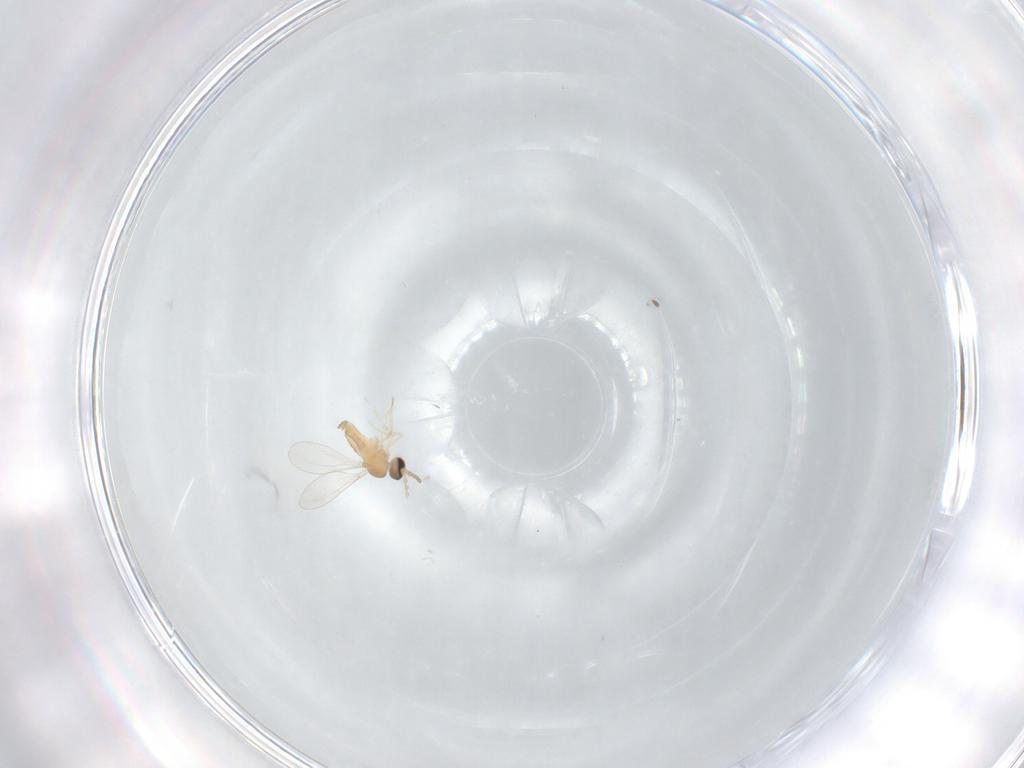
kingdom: Animalia
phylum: Arthropoda
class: Insecta
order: Diptera
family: Cecidomyiidae
